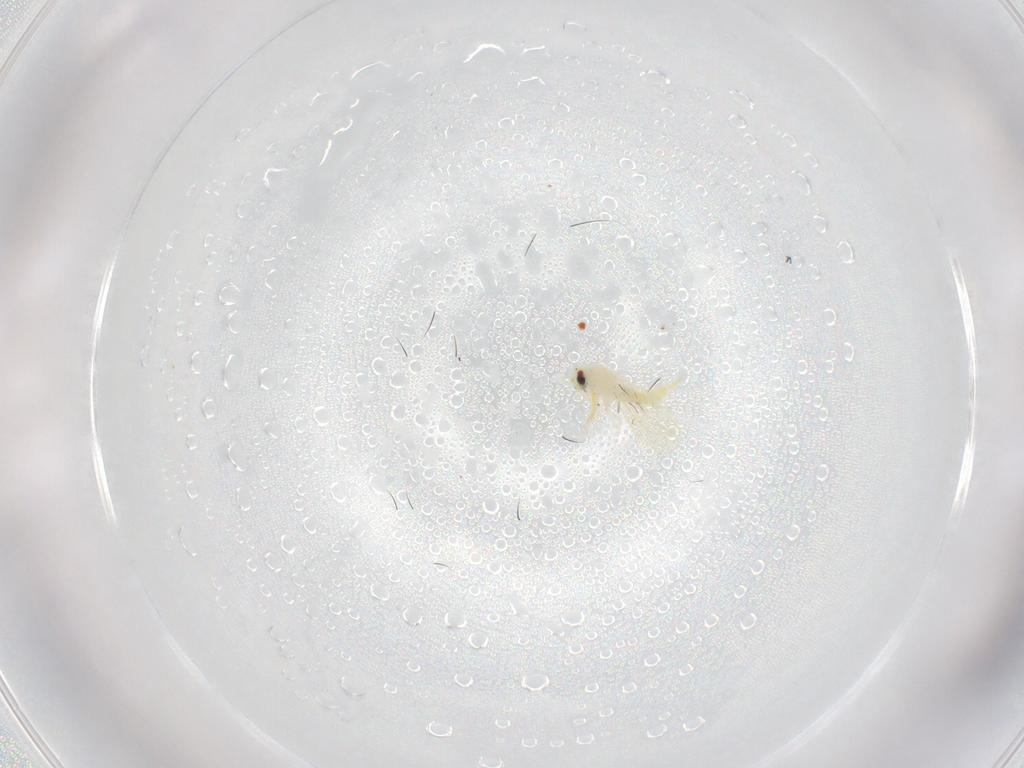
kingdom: Animalia
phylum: Arthropoda
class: Insecta
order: Hemiptera
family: Aleyrodidae
